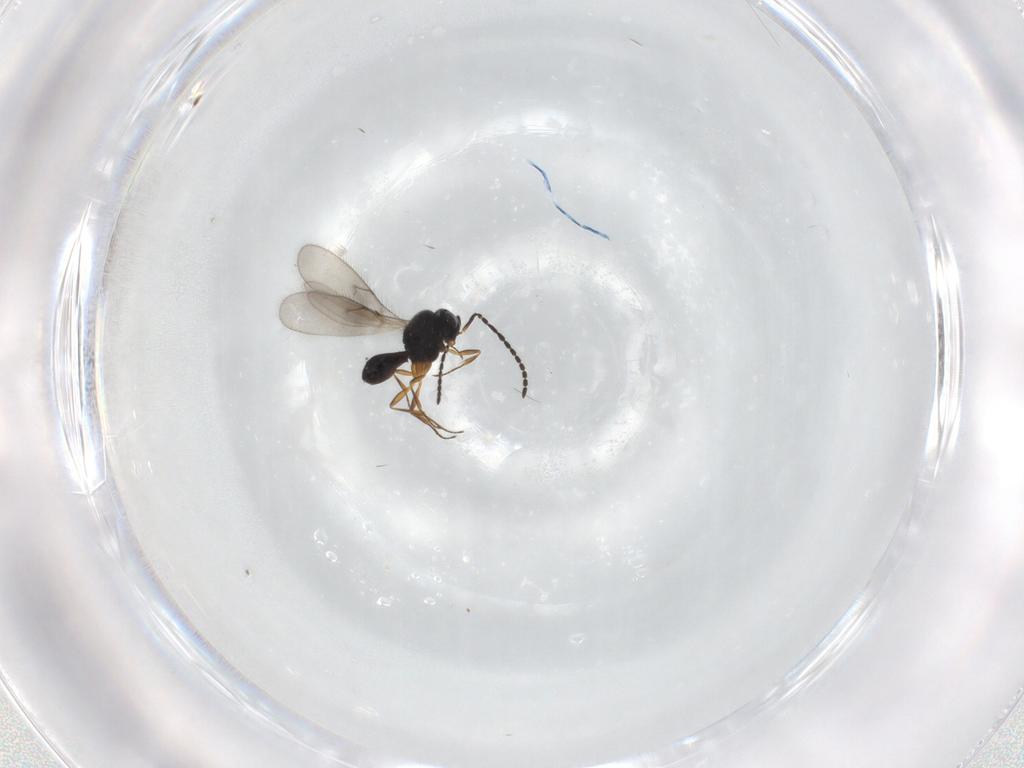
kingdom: Animalia
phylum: Arthropoda
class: Insecta
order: Hymenoptera
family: Scelionidae
